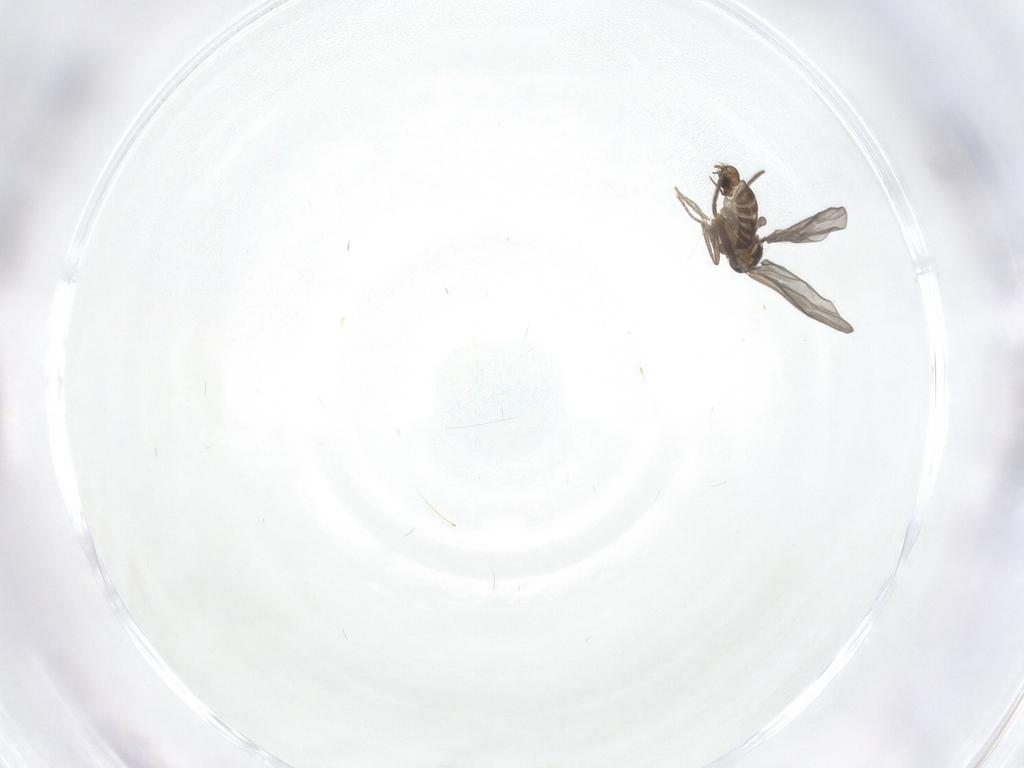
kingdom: Animalia
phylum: Arthropoda
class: Insecta
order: Diptera
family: Phoridae
